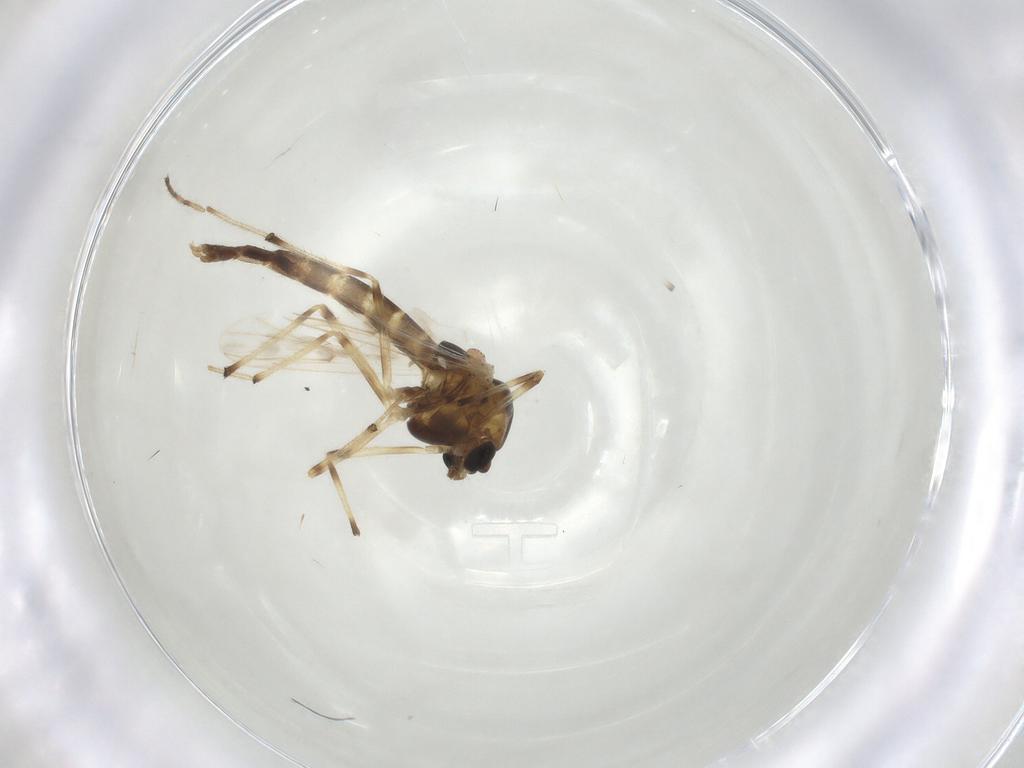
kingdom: Animalia
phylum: Arthropoda
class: Insecta
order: Diptera
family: Chironomidae
